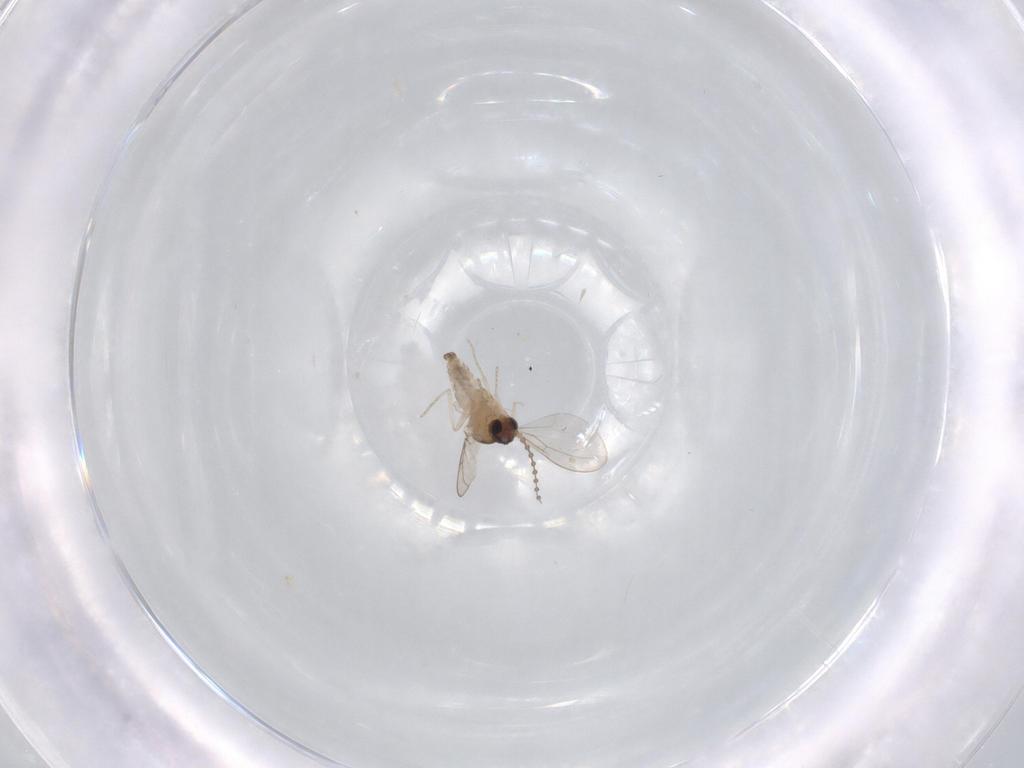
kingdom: Animalia
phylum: Arthropoda
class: Insecta
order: Diptera
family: Cecidomyiidae
